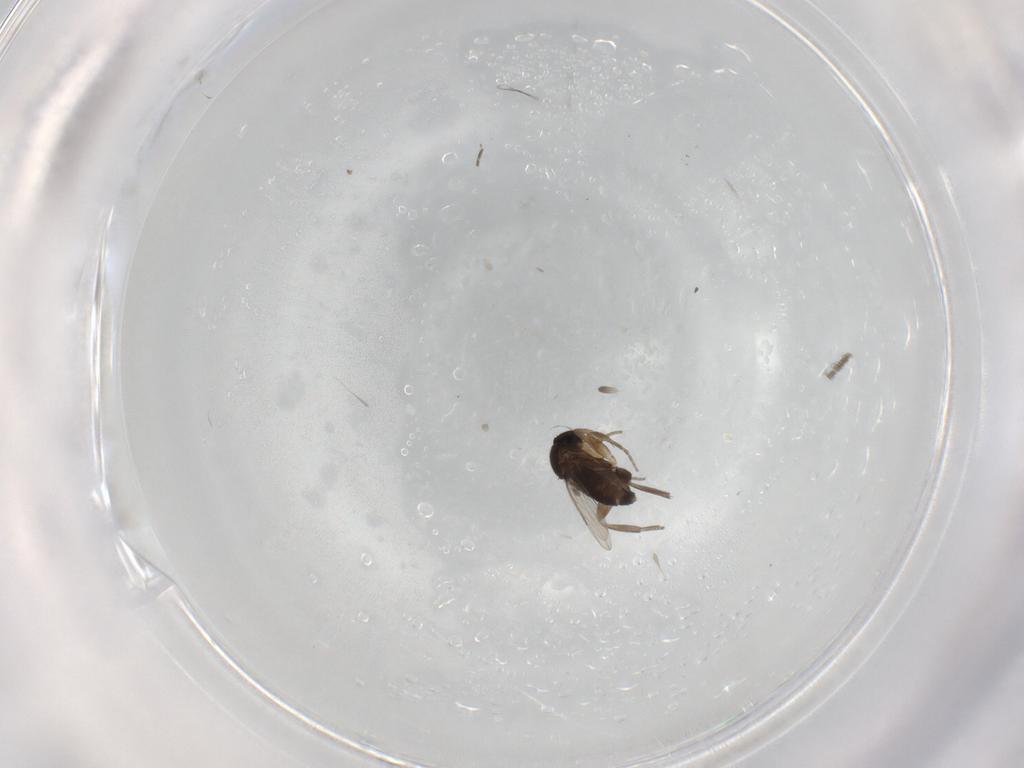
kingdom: Animalia
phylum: Arthropoda
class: Insecta
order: Diptera
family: Phoridae
